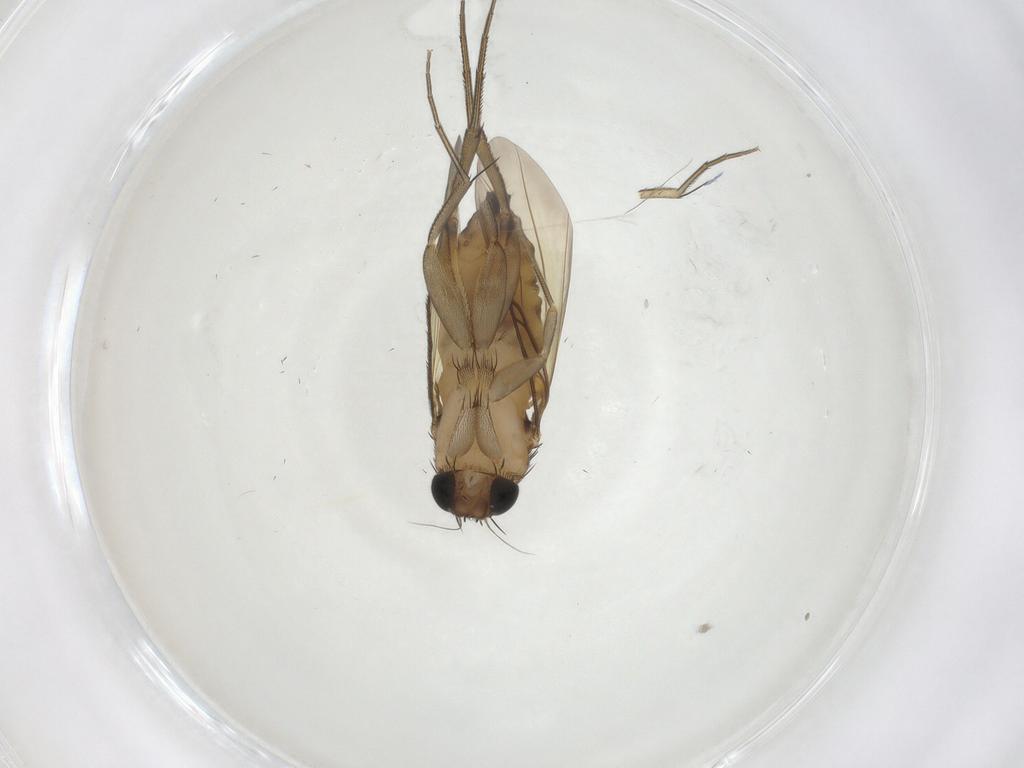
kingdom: Animalia
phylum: Arthropoda
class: Insecta
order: Diptera
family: Phoridae
